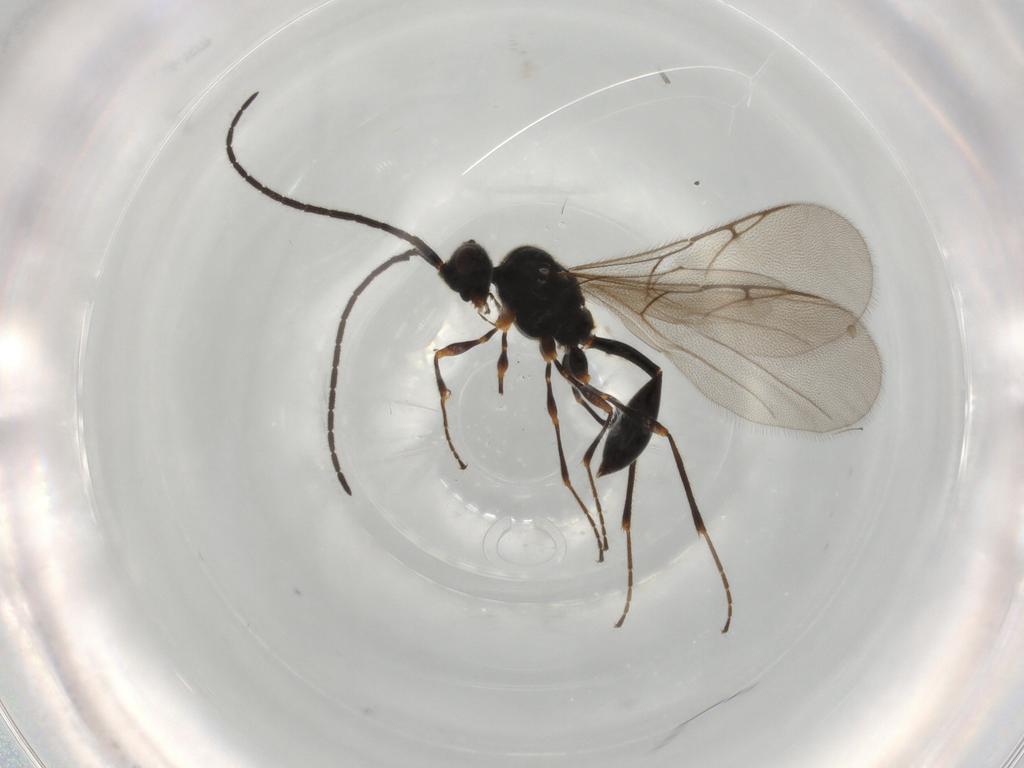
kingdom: Animalia
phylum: Arthropoda
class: Insecta
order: Hymenoptera
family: Diapriidae
